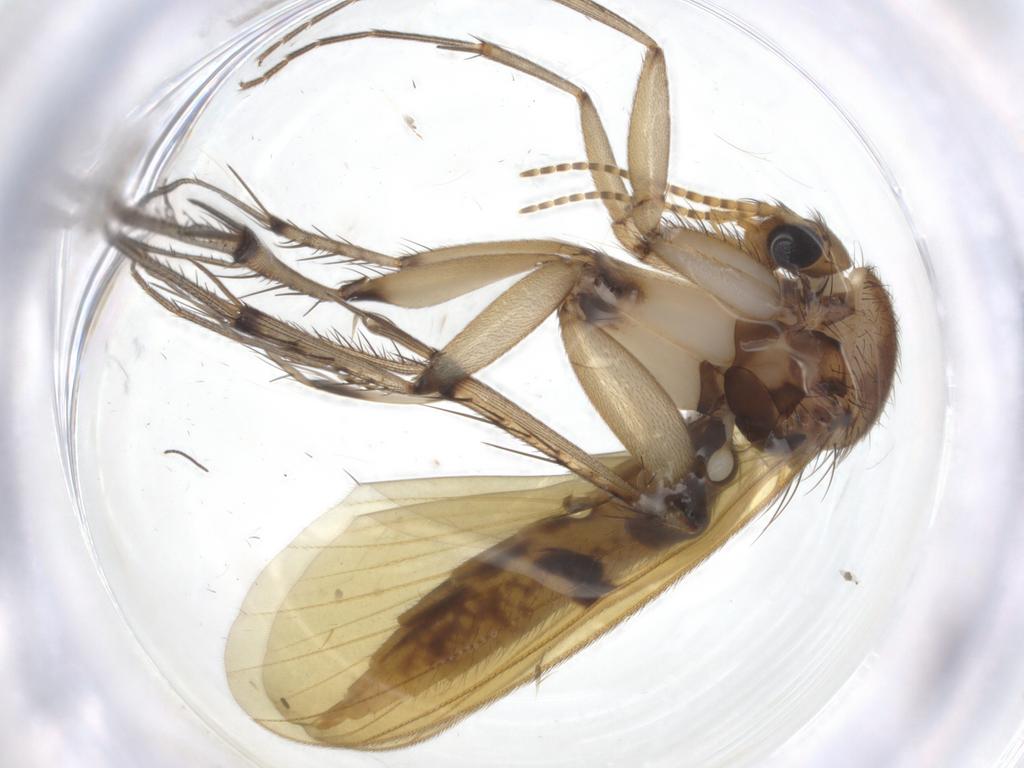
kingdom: Animalia
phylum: Arthropoda
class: Insecta
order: Diptera
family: Mycetophilidae
